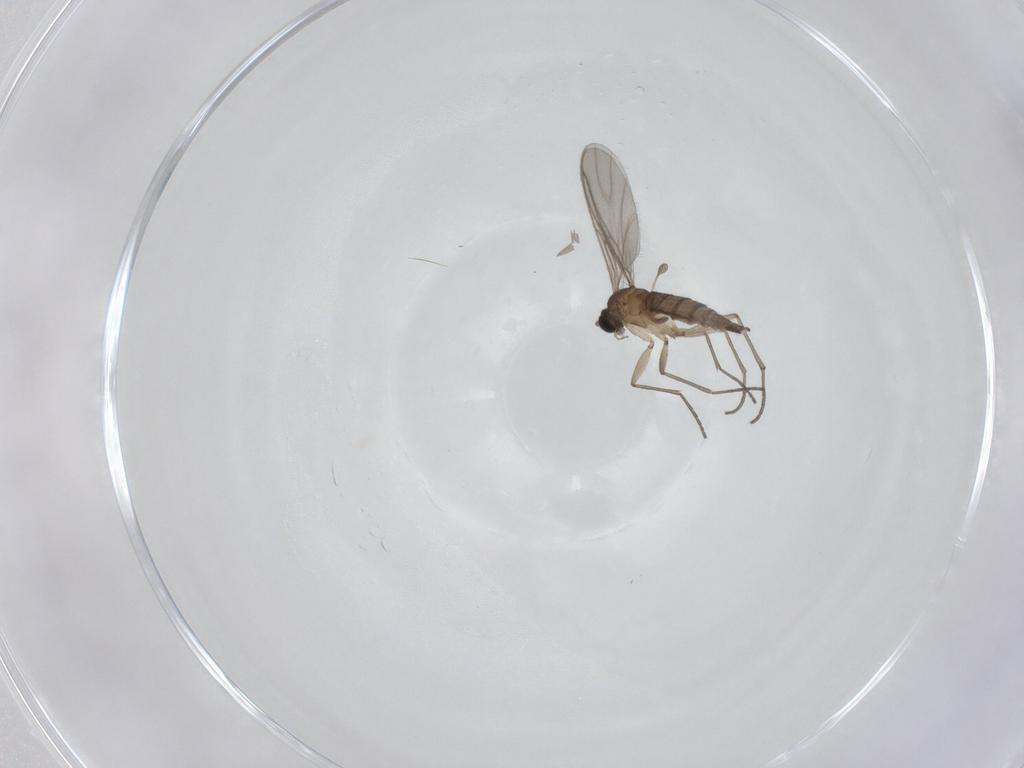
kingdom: Animalia
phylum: Arthropoda
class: Insecta
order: Diptera
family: Sciaridae
